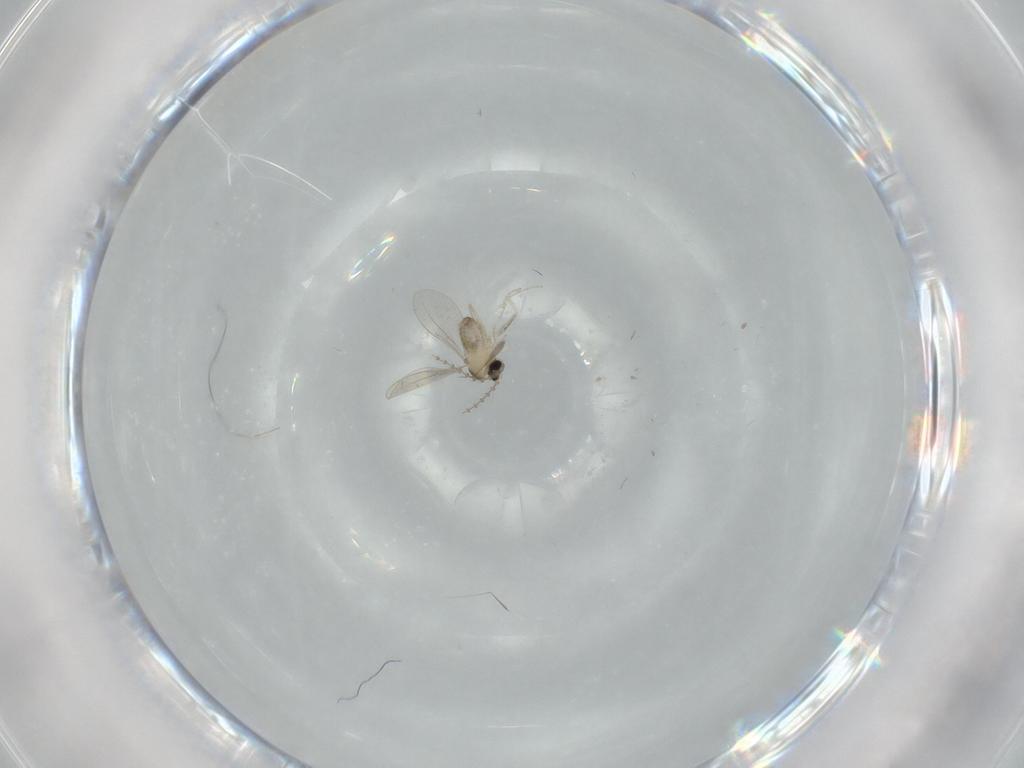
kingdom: Animalia
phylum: Arthropoda
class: Insecta
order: Diptera
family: Cecidomyiidae
